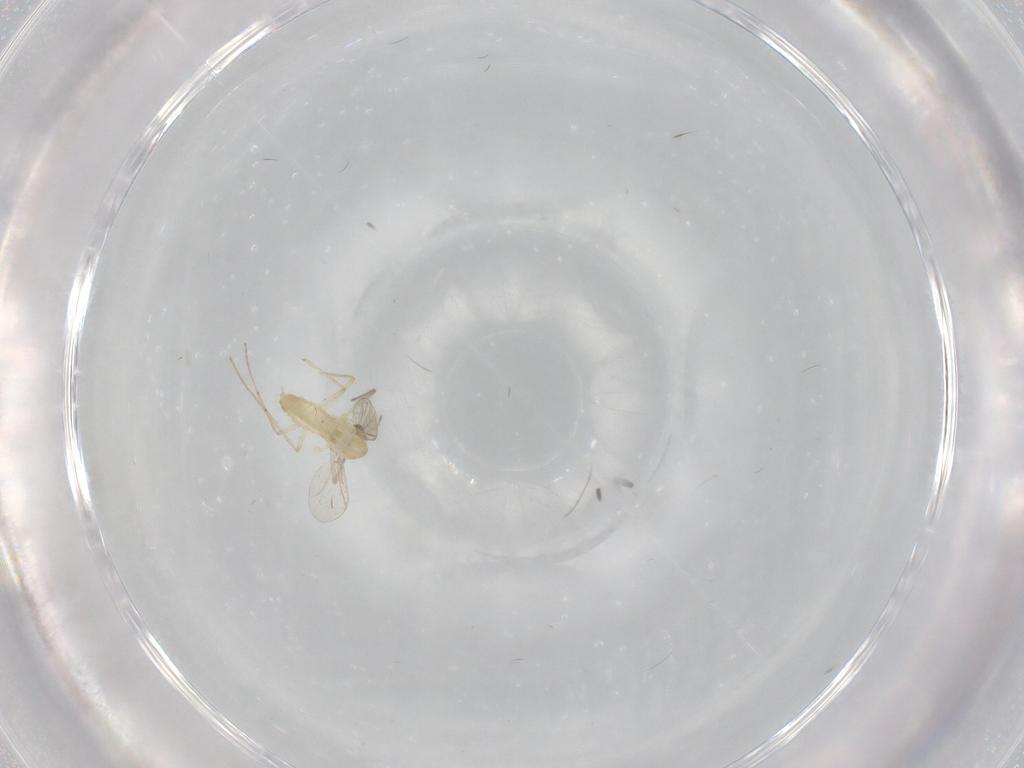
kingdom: Animalia
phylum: Arthropoda
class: Insecta
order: Diptera
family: Chironomidae
